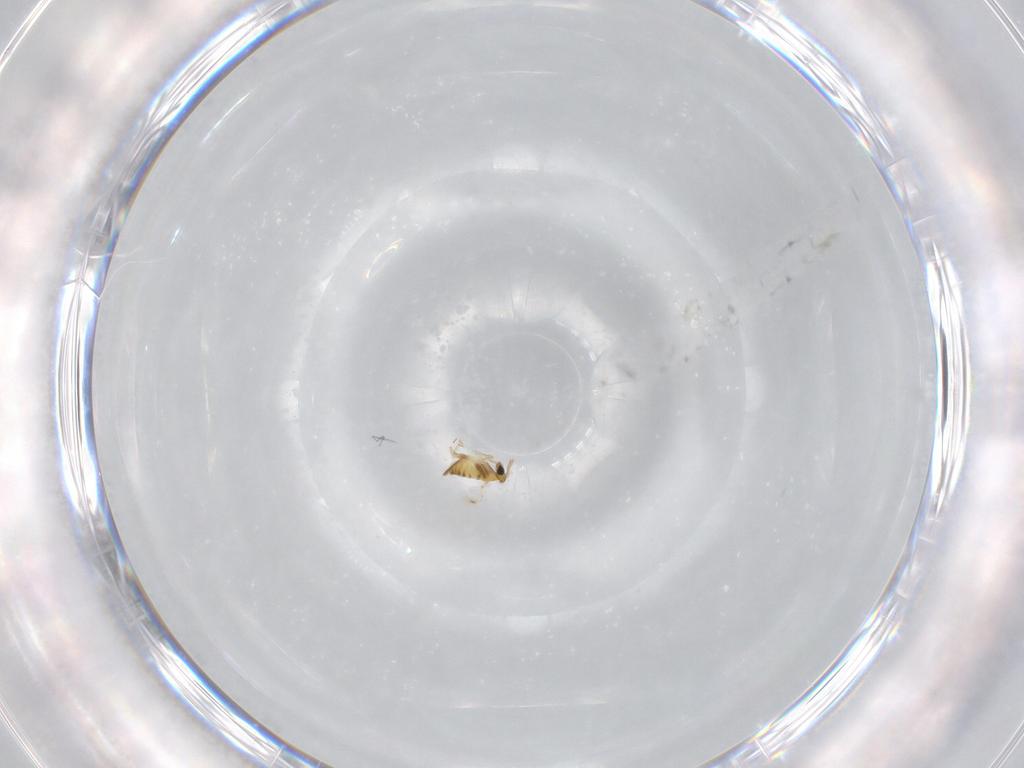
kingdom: Animalia
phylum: Arthropoda
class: Insecta
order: Hymenoptera
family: Trichogrammatidae
